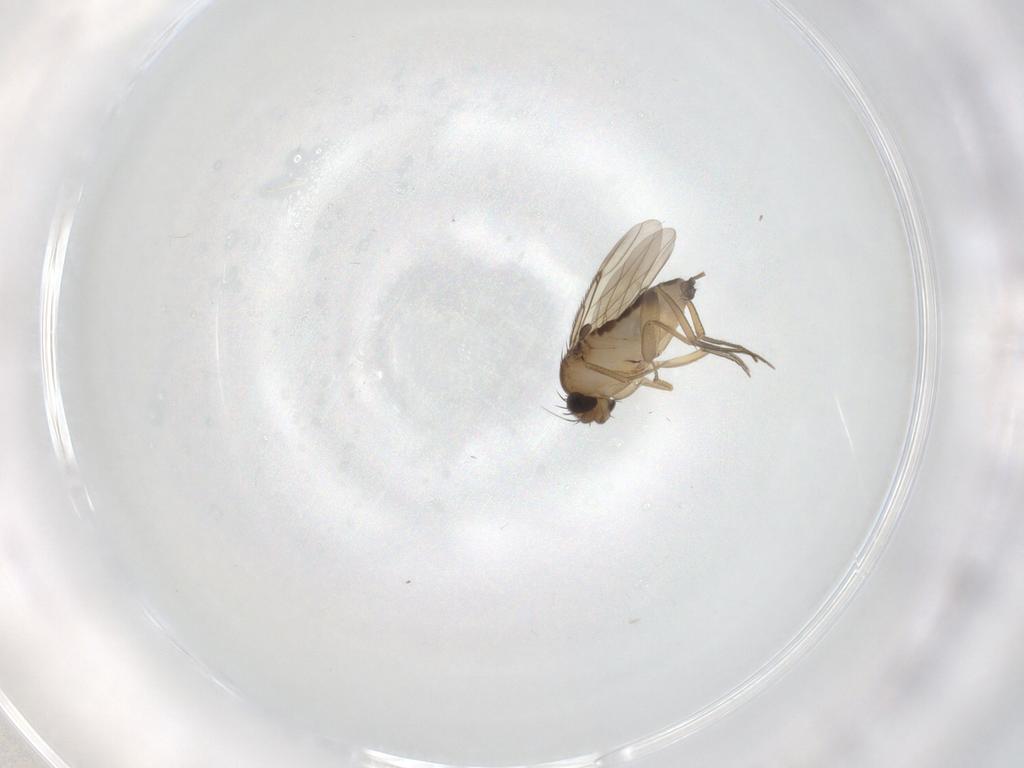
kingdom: Animalia
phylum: Arthropoda
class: Insecta
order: Diptera
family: Phoridae
